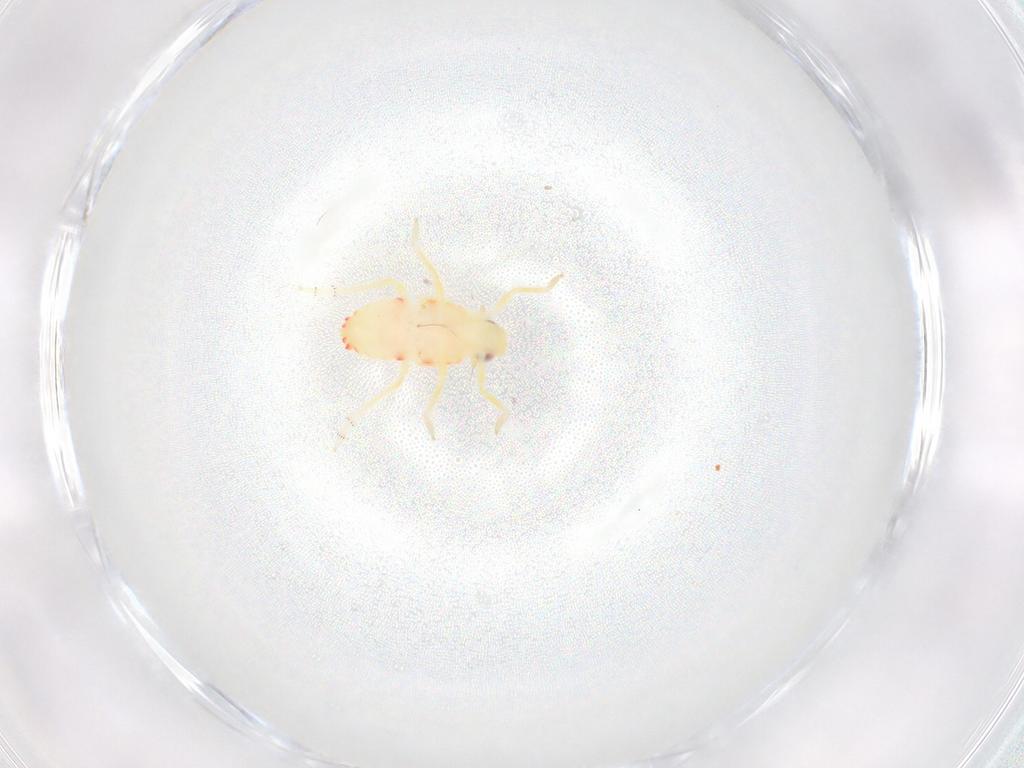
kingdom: Animalia
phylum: Arthropoda
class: Insecta
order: Hemiptera
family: Tropiduchidae
